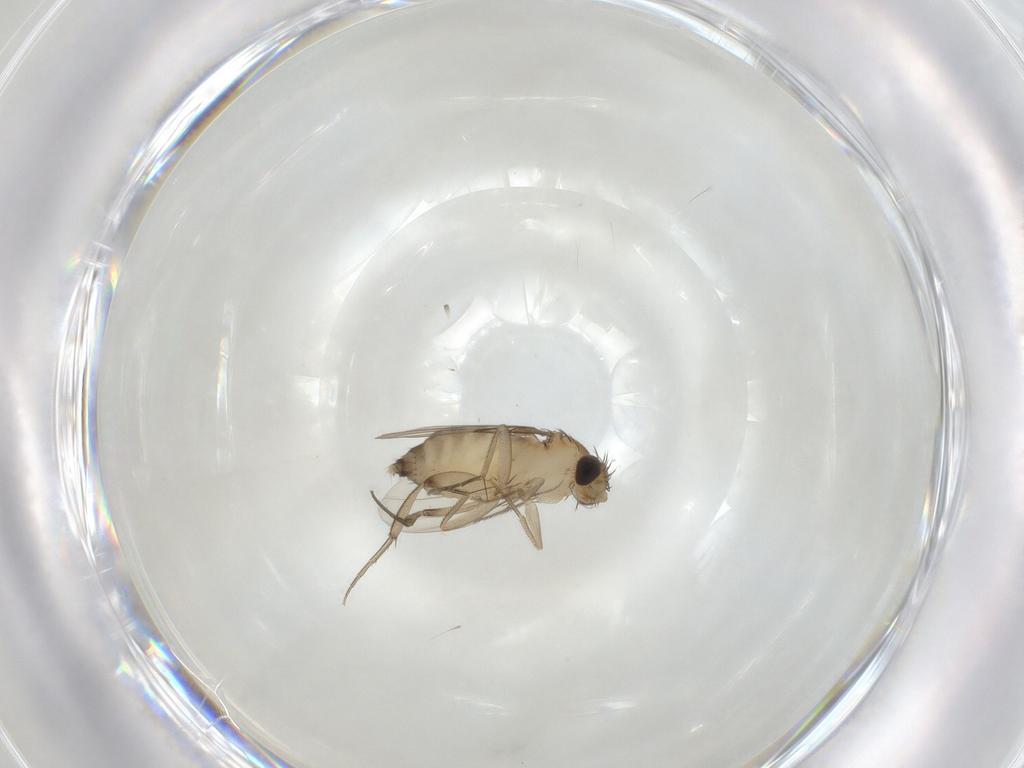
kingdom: Animalia
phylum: Arthropoda
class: Insecta
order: Diptera
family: Phoridae
